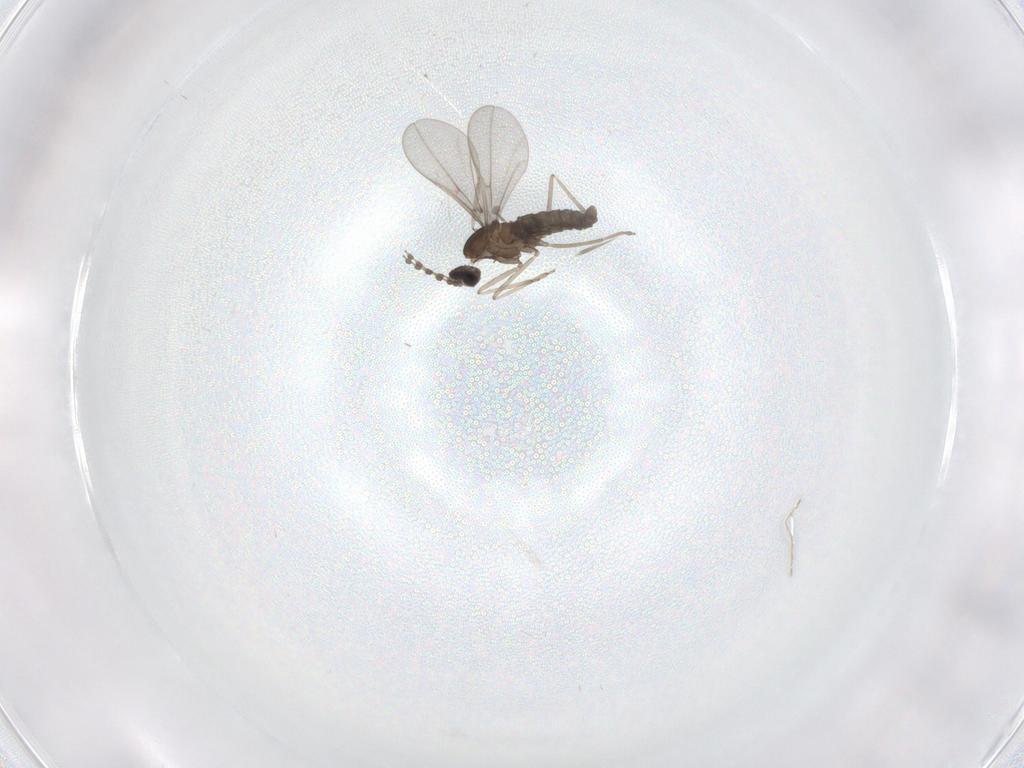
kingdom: Animalia
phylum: Arthropoda
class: Insecta
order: Diptera
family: Cecidomyiidae
